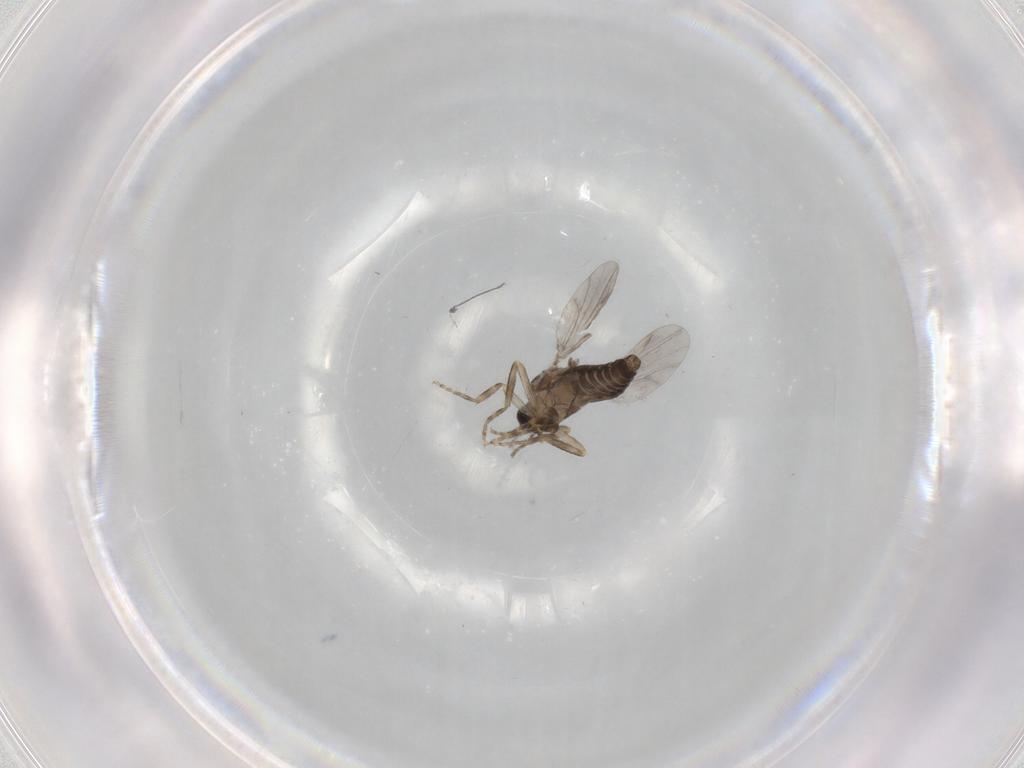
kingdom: Animalia
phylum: Arthropoda
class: Insecta
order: Diptera
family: Ceratopogonidae
